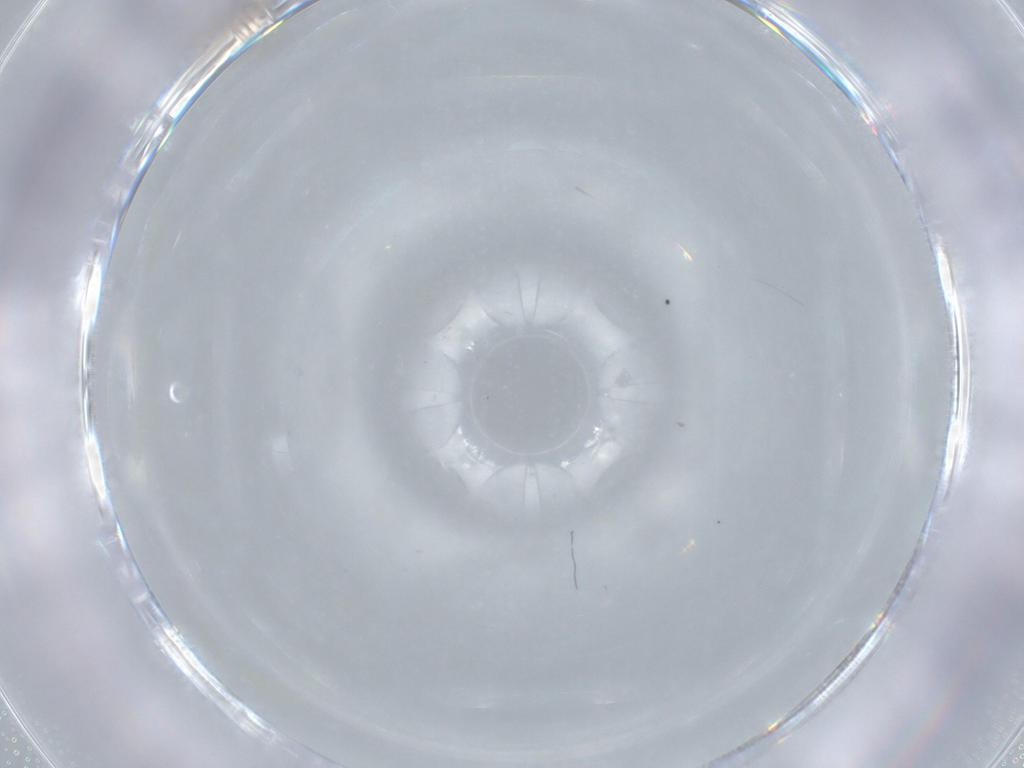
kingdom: Animalia
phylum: Arthropoda
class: Insecta
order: Diptera
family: Cecidomyiidae
